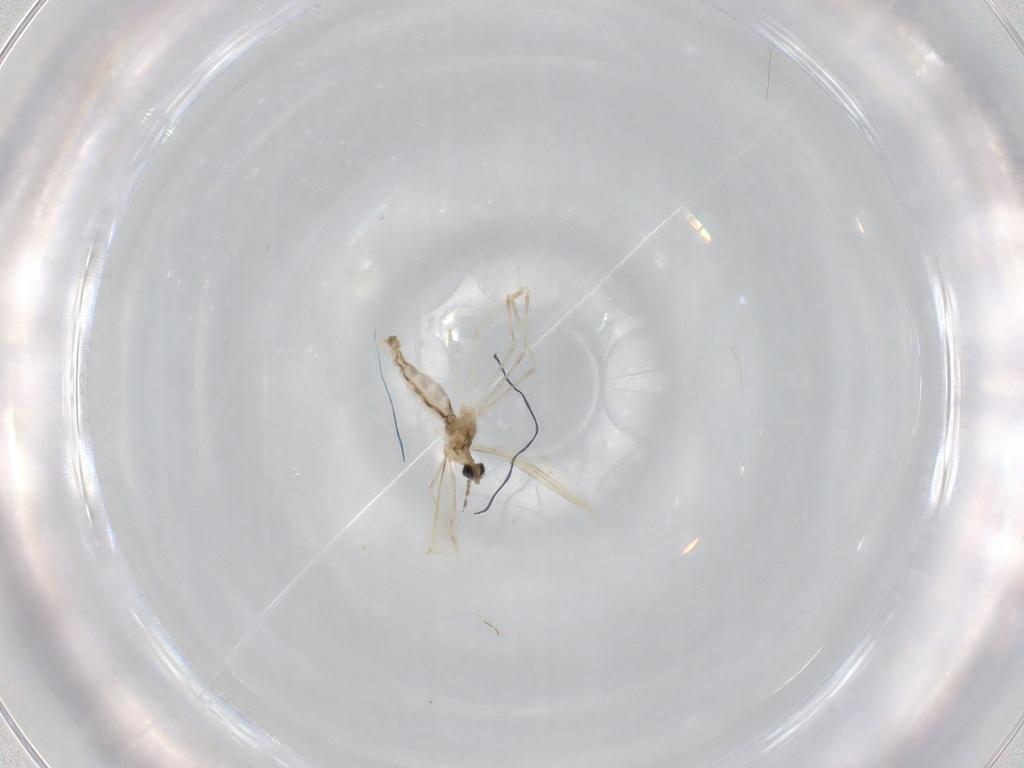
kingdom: Animalia
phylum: Arthropoda
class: Insecta
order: Diptera
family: Cecidomyiidae
